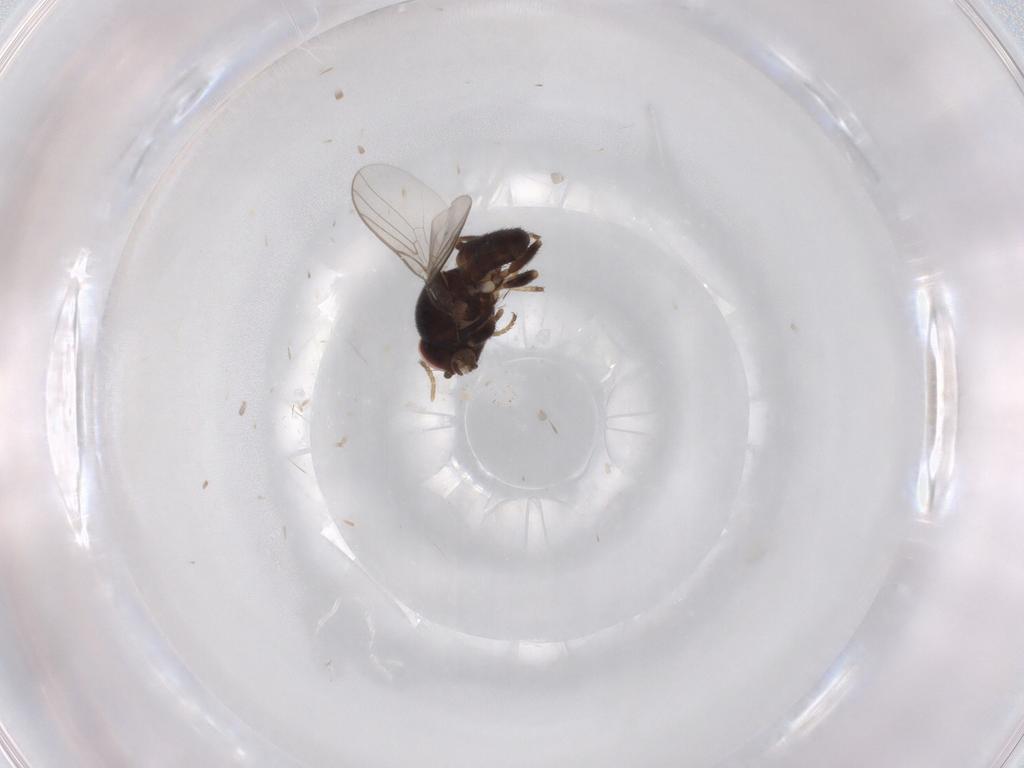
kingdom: Animalia
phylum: Arthropoda
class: Insecta
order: Diptera
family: Chloropidae
